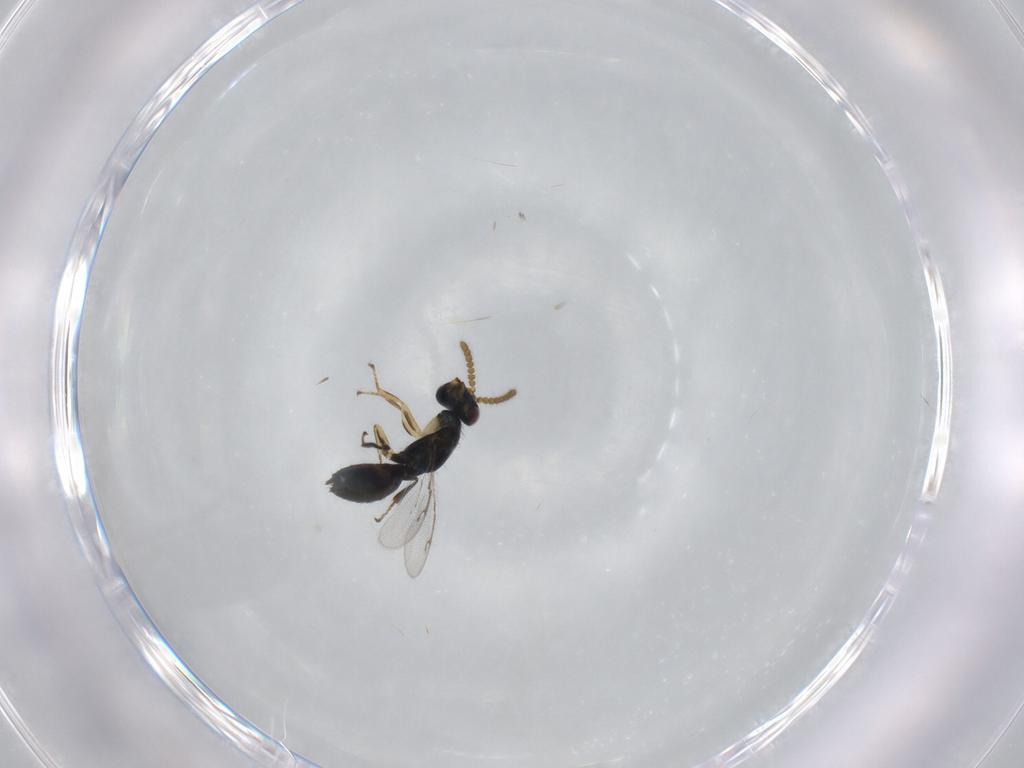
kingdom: Animalia
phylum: Arthropoda
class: Insecta
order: Hymenoptera
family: Pirenidae
